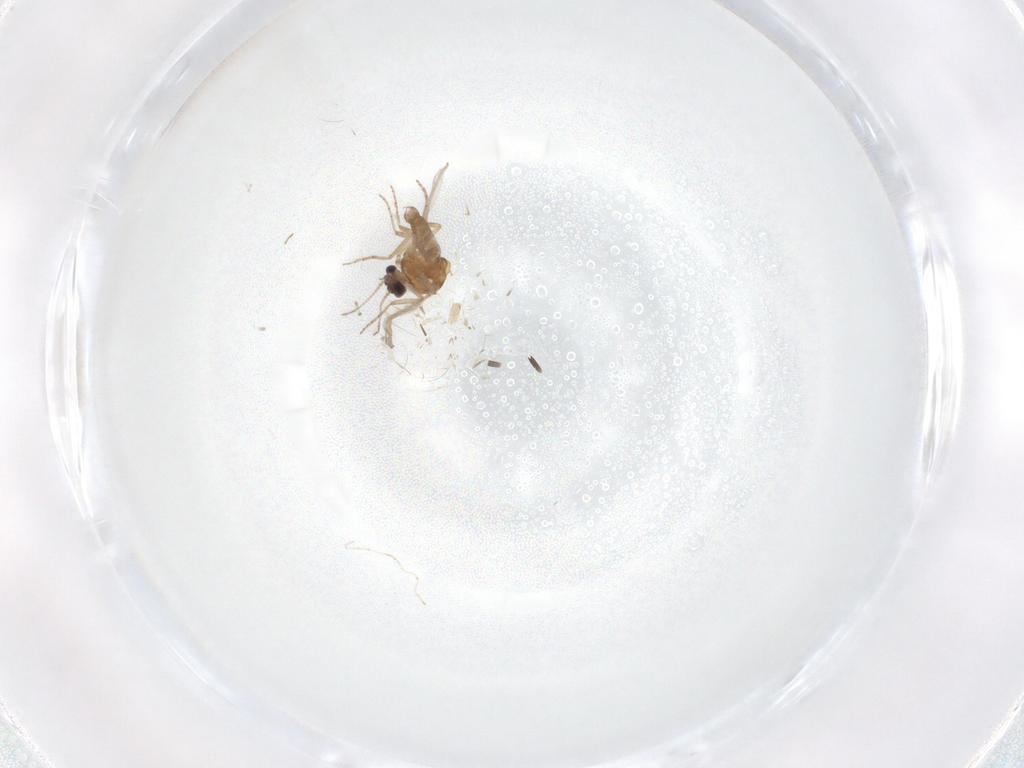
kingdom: Animalia
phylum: Arthropoda
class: Insecta
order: Diptera
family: Ceratopogonidae
